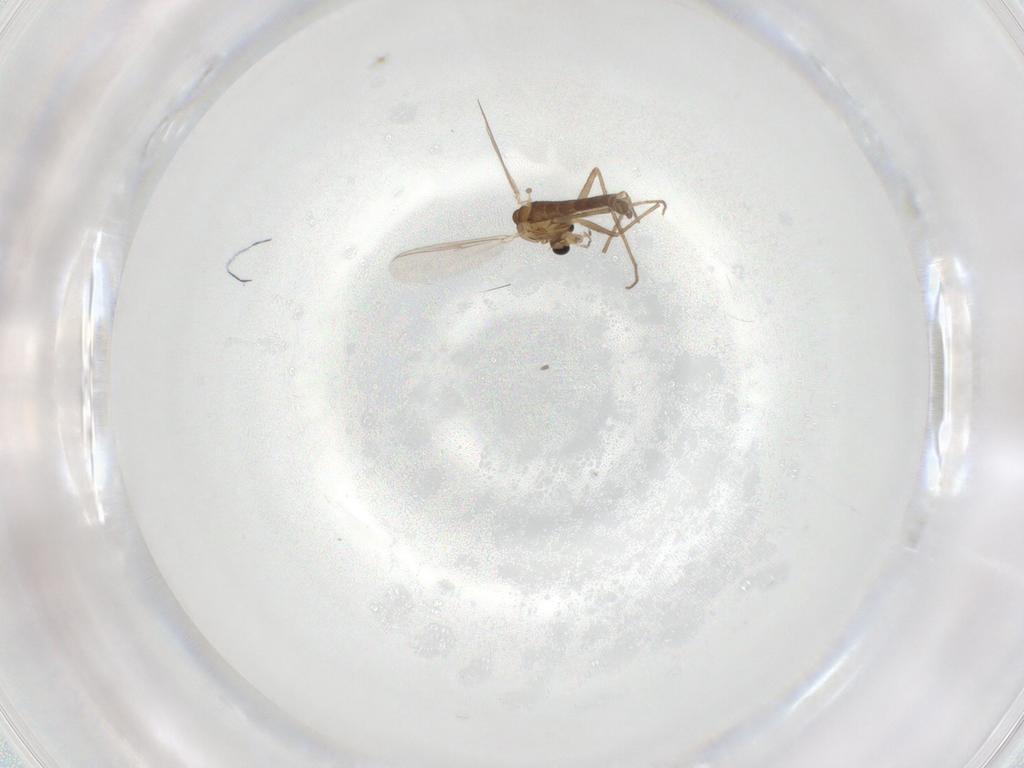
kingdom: Animalia
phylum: Arthropoda
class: Insecta
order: Diptera
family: Chironomidae
